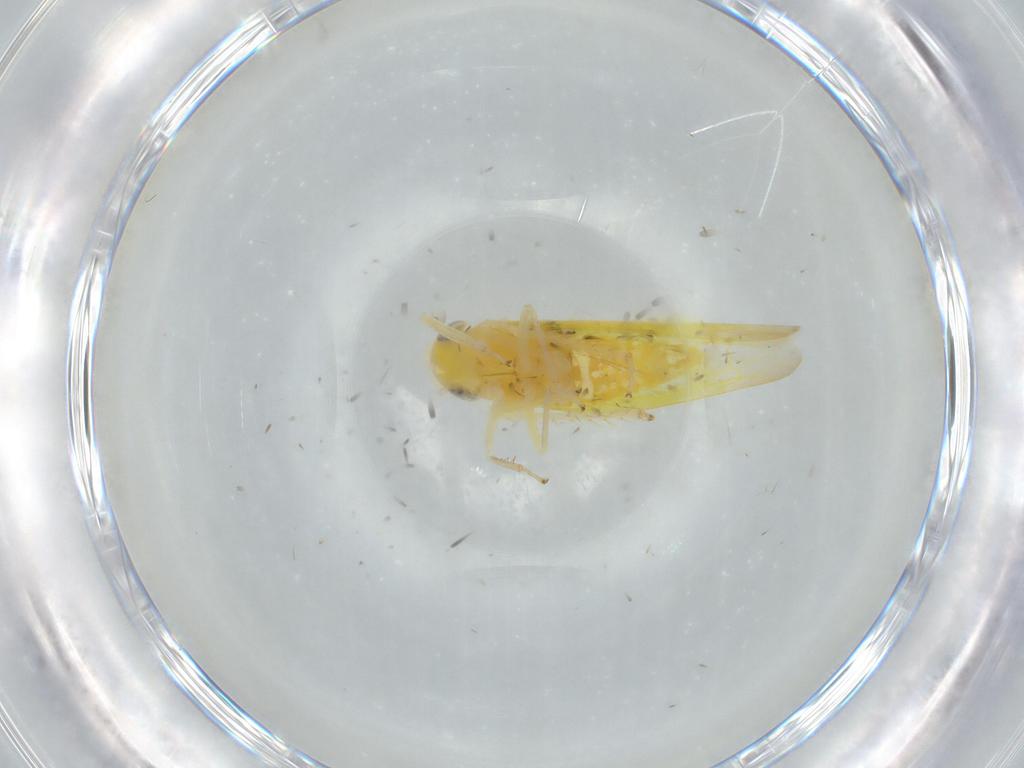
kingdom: Animalia
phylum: Arthropoda
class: Insecta
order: Hemiptera
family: Cicadellidae
